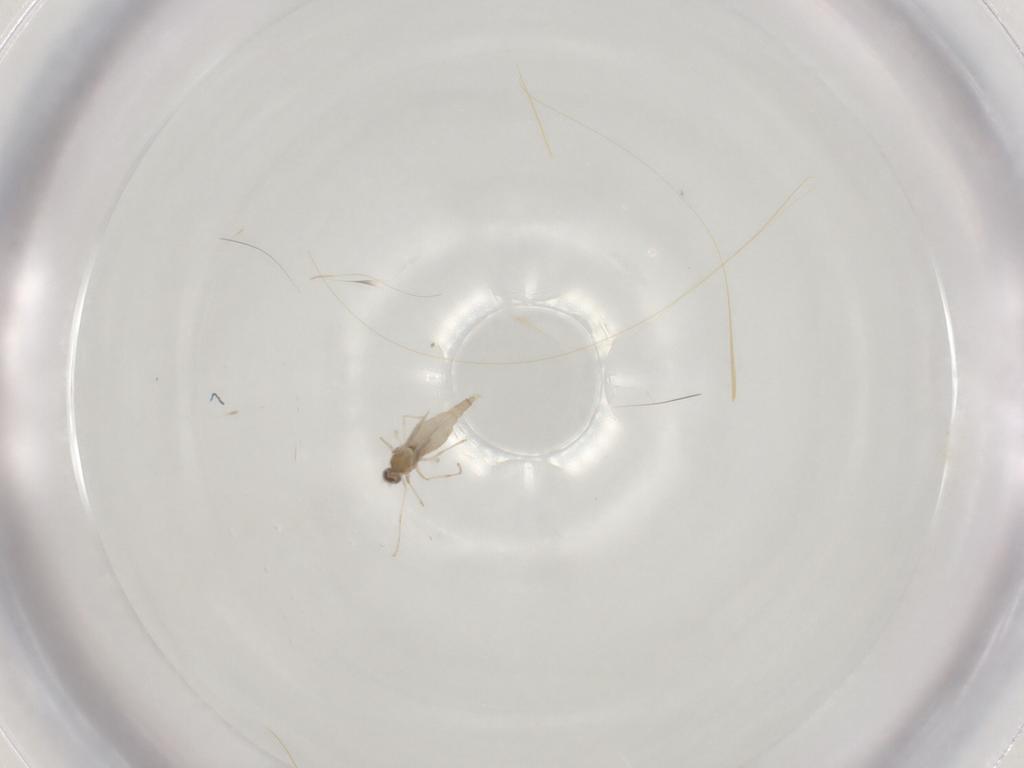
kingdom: Animalia
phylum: Arthropoda
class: Insecta
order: Diptera
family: Cecidomyiidae
